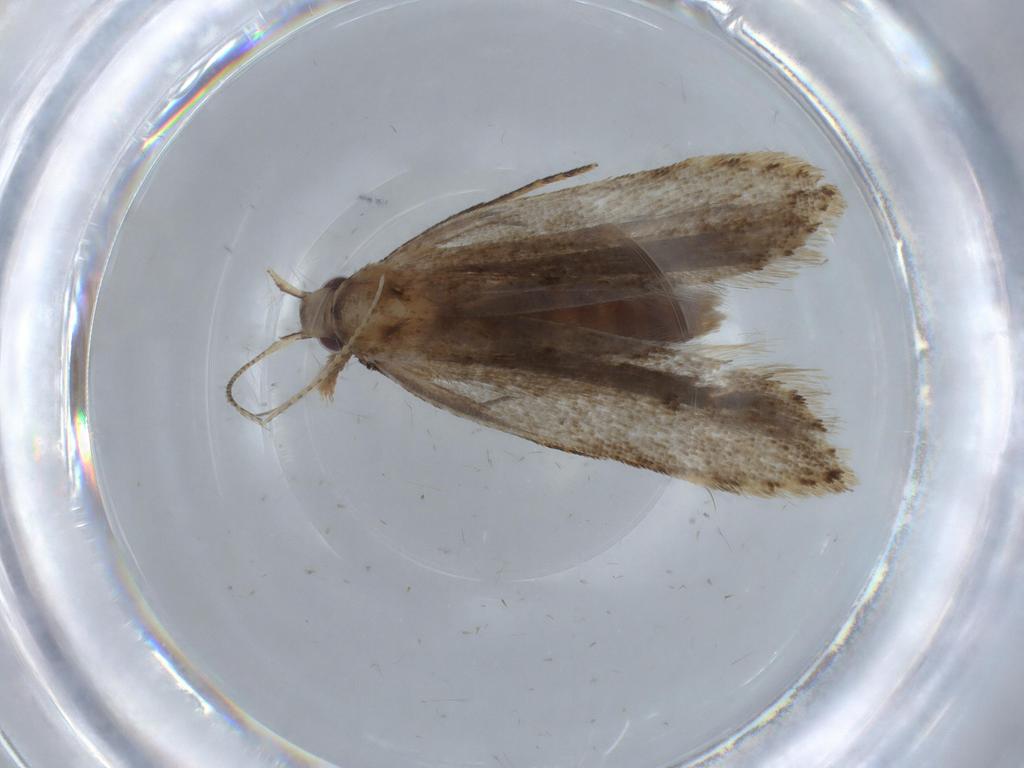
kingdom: Animalia
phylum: Arthropoda
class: Insecta
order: Lepidoptera
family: Gelechiidae
